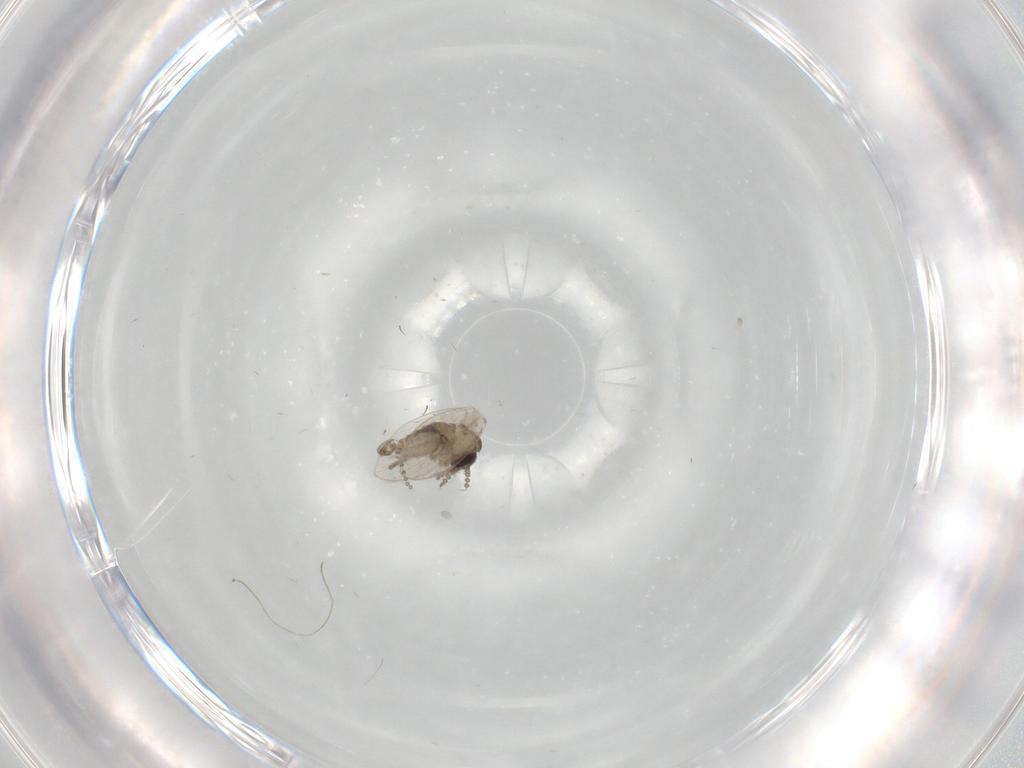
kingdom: Animalia
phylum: Arthropoda
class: Insecta
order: Diptera
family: Psychodidae
